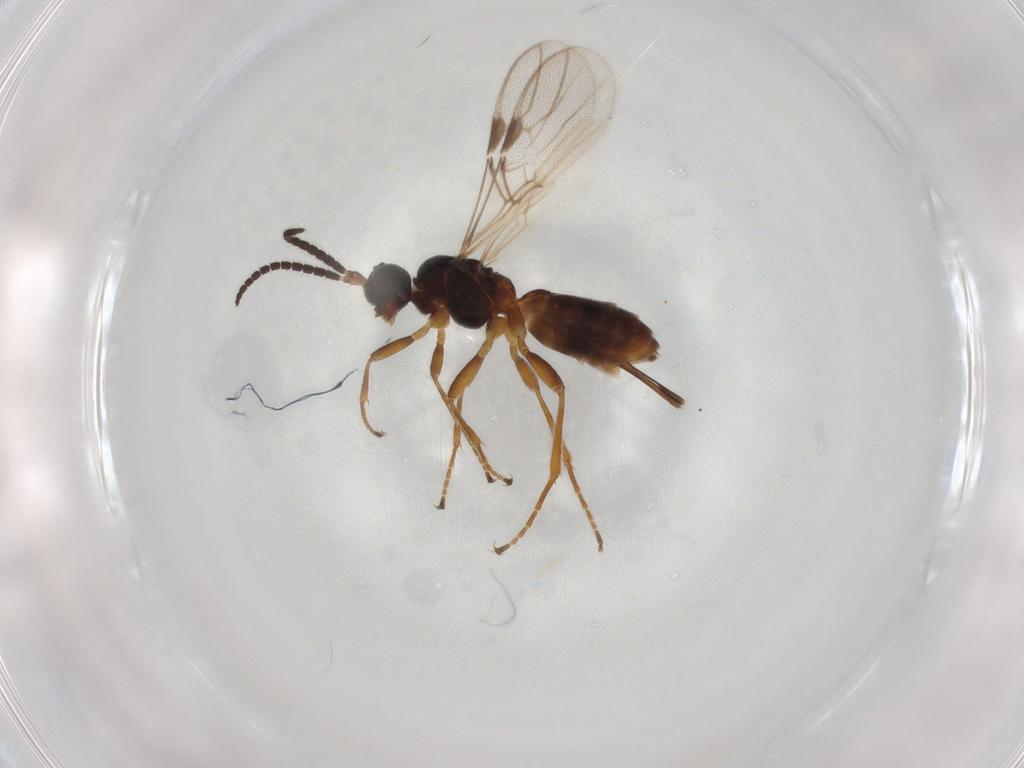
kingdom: Animalia
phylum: Arthropoda
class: Insecta
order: Hymenoptera
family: Braconidae
